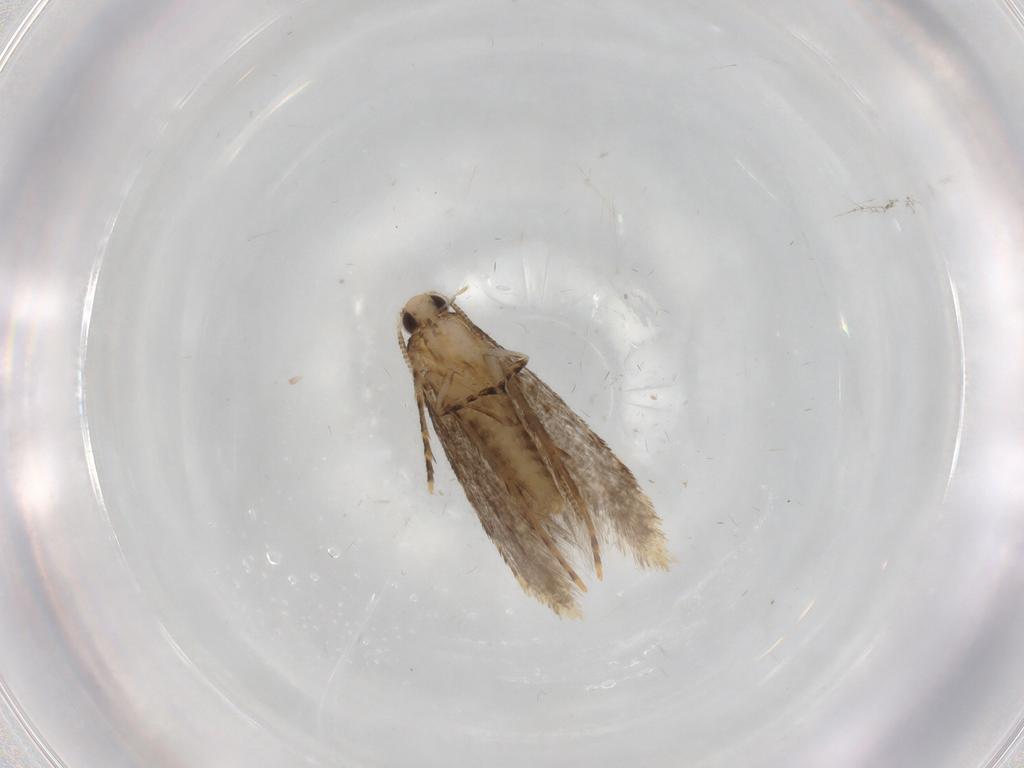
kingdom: Animalia
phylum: Arthropoda
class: Insecta
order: Lepidoptera
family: Tineidae
